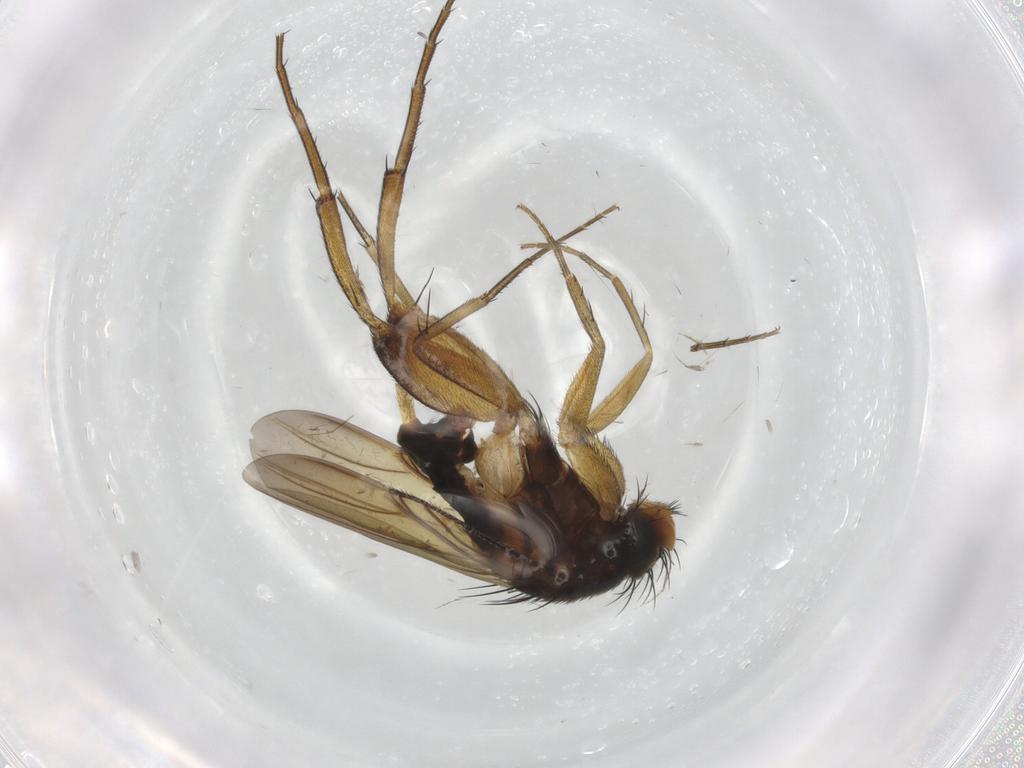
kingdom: Animalia
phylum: Arthropoda
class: Insecta
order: Diptera
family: Phoridae
